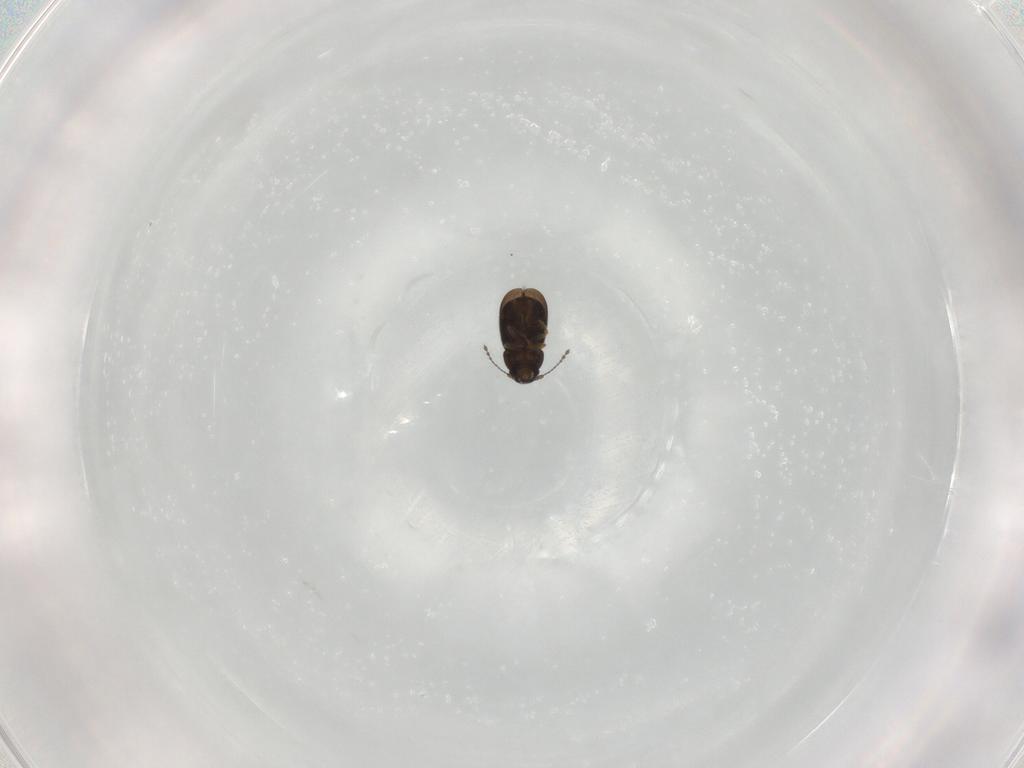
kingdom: Animalia
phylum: Arthropoda
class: Insecta
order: Coleoptera
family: Ptiliidae
